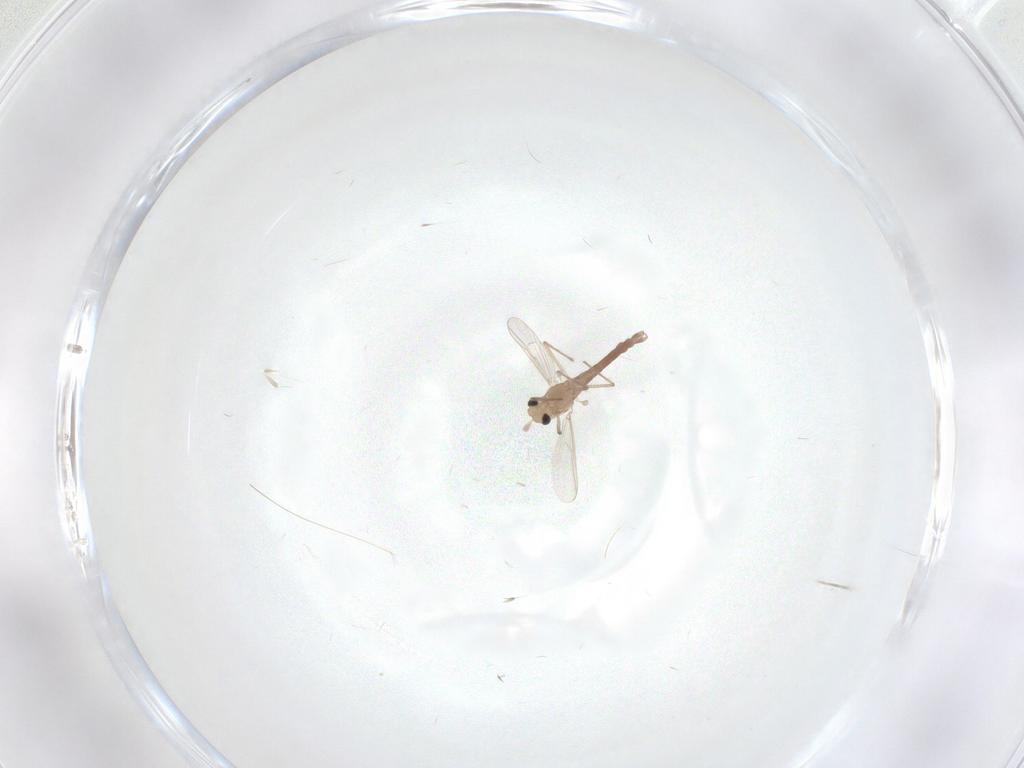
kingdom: Animalia
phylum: Arthropoda
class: Insecta
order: Diptera
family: Chironomidae
